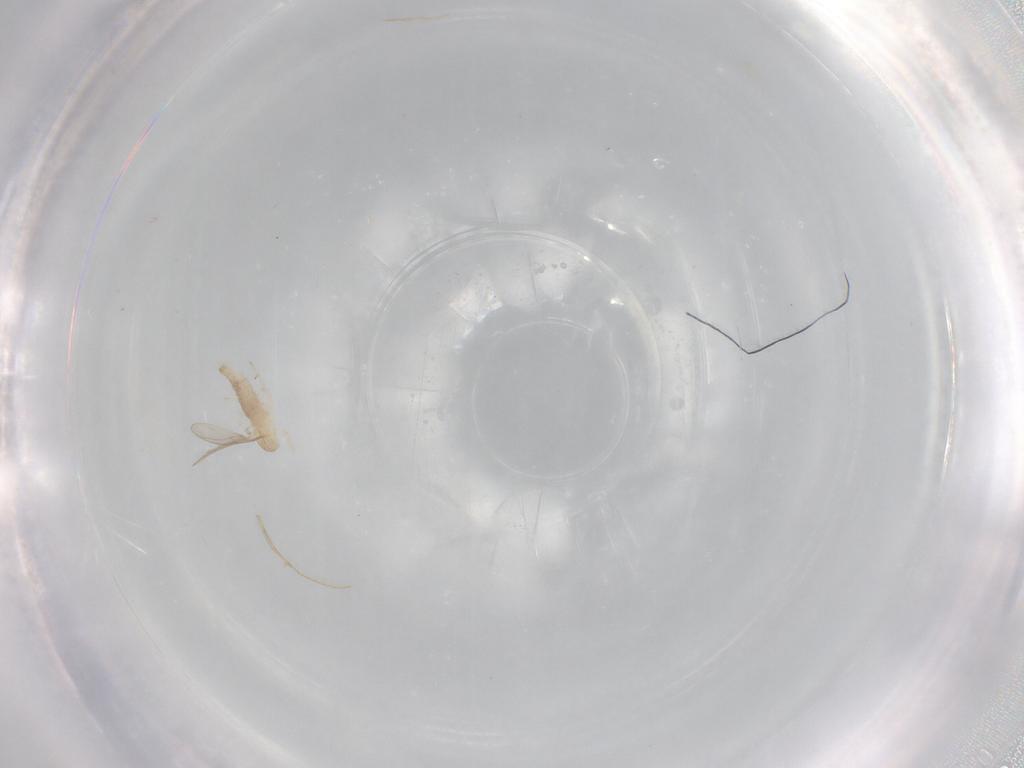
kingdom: Animalia
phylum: Arthropoda
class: Insecta
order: Diptera
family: Cecidomyiidae
